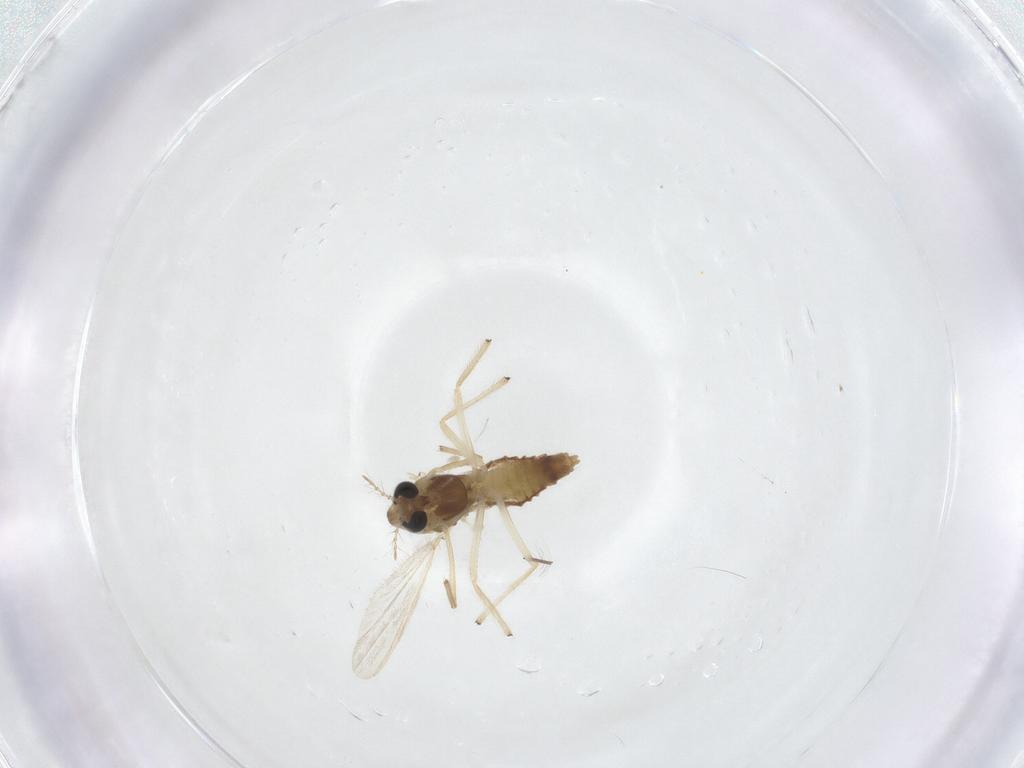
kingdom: Animalia
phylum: Arthropoda
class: Insecta
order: Diptera
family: Chironomidae
